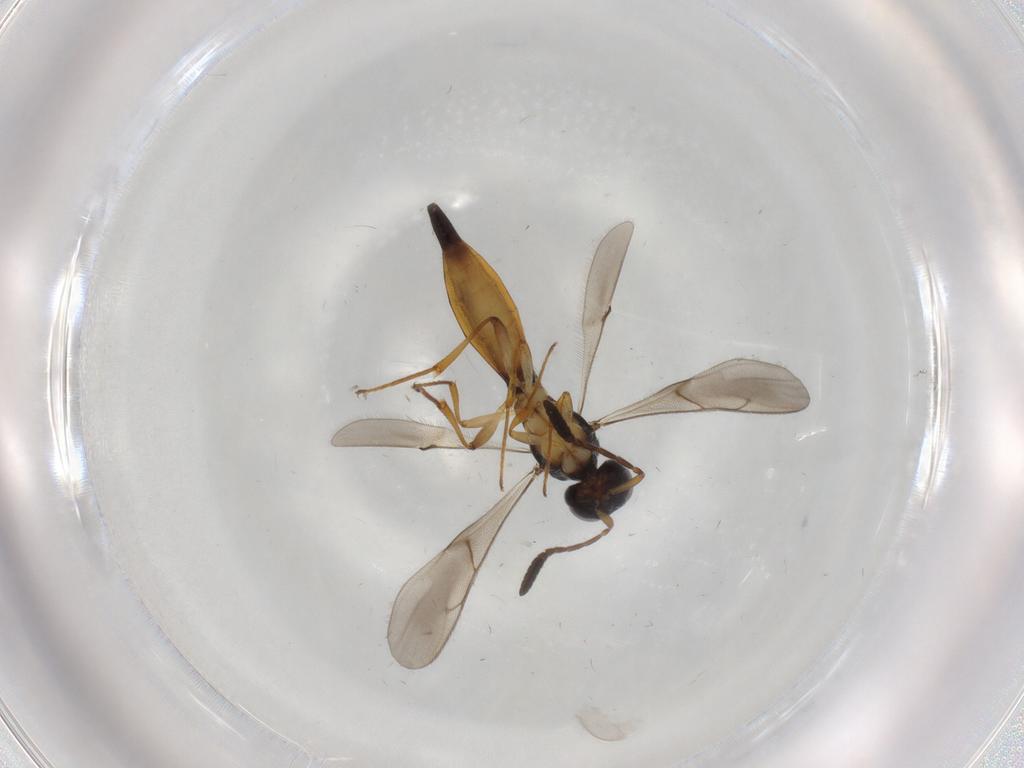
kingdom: Animalia
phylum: Arthropoda
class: Insecta
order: Hymenoptera
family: Scelionidae
